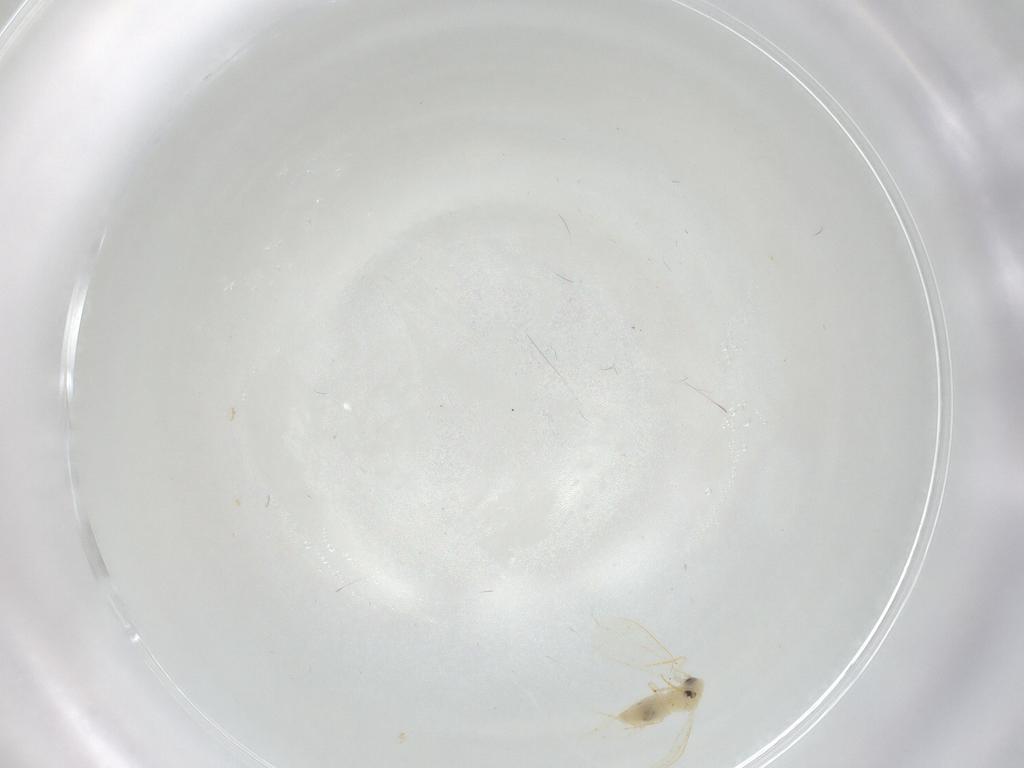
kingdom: Animalia
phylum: Arthropoda
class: Insecta
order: Hemiptera
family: Aleyrodidae
